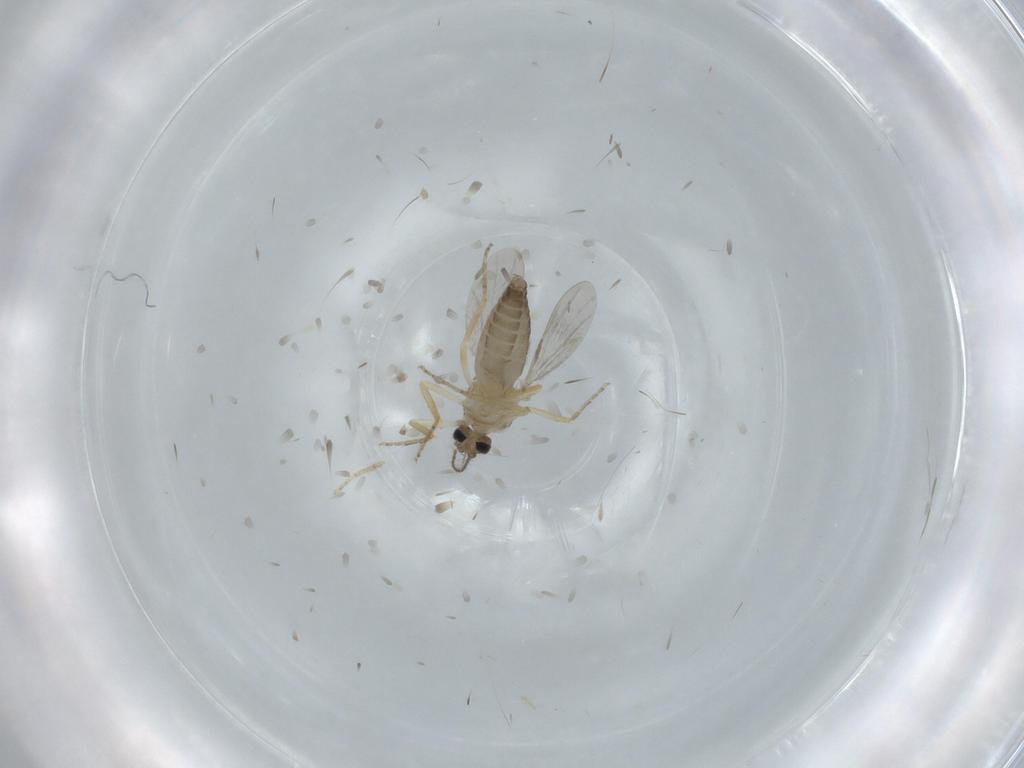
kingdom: Animalia
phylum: Arthropoda
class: Insecta
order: Diptera
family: Ceratopogonidae
